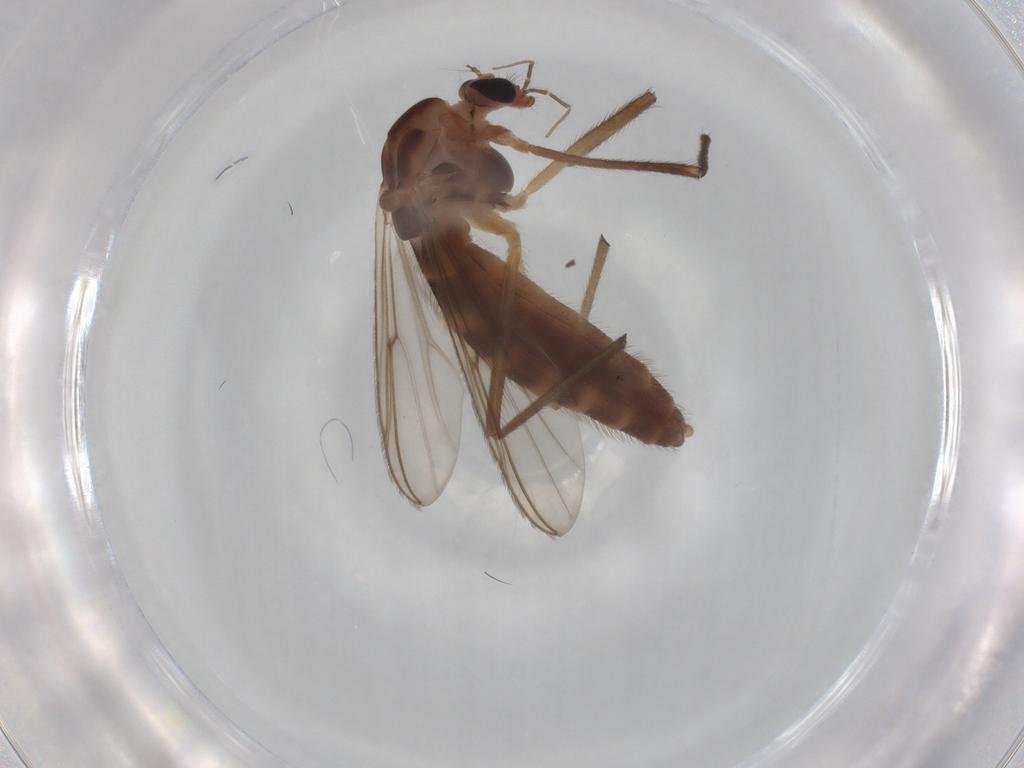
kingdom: Animalia
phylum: Arthropoda
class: Insecta
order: Diptera
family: Chironomidae
